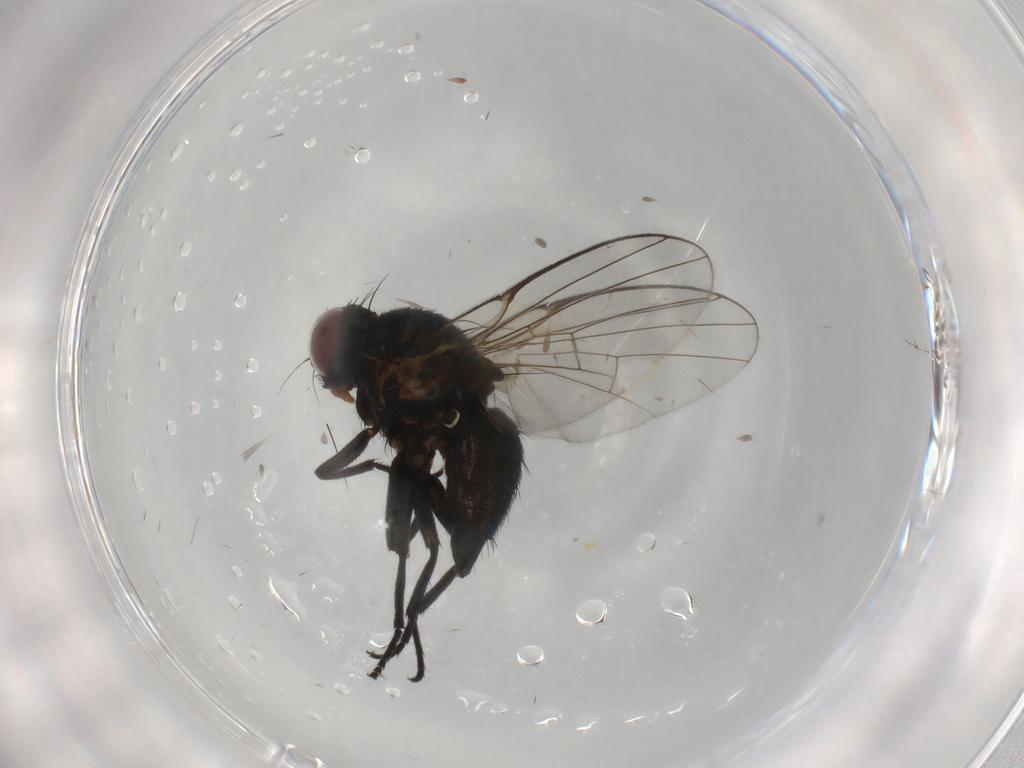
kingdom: Animalia
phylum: Arthropoda
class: Insecta
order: Diptera
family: Agromyzidae
